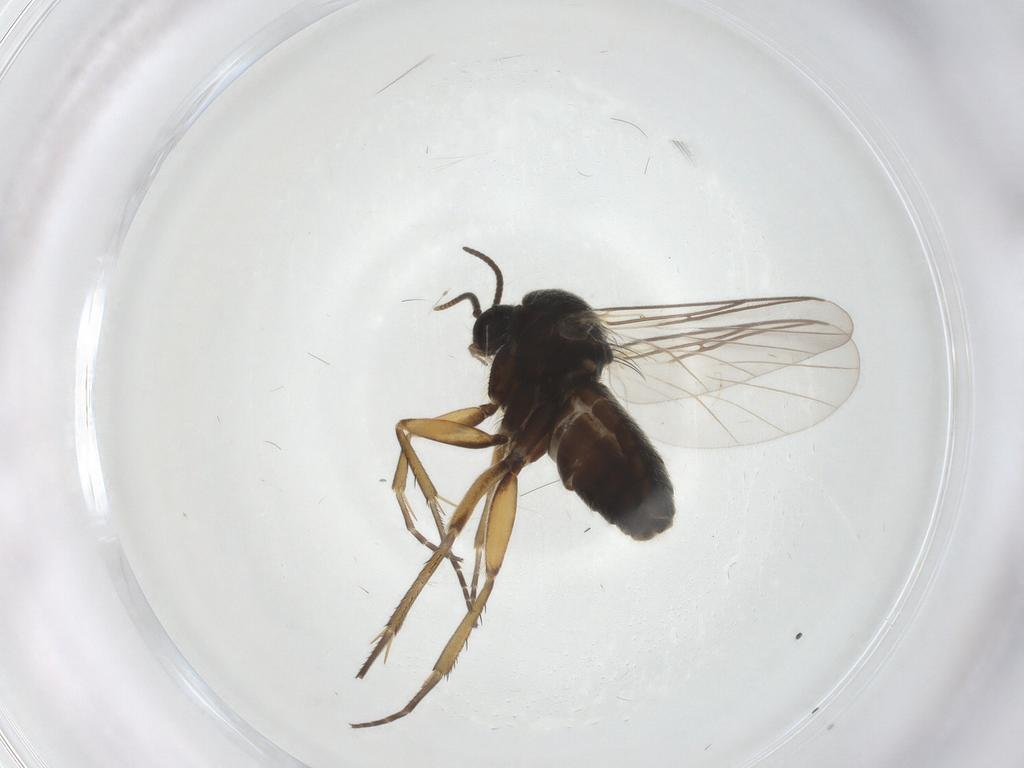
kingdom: Animalia
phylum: Arthropoda
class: Insecta
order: Diptera
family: Mycetophilidae
